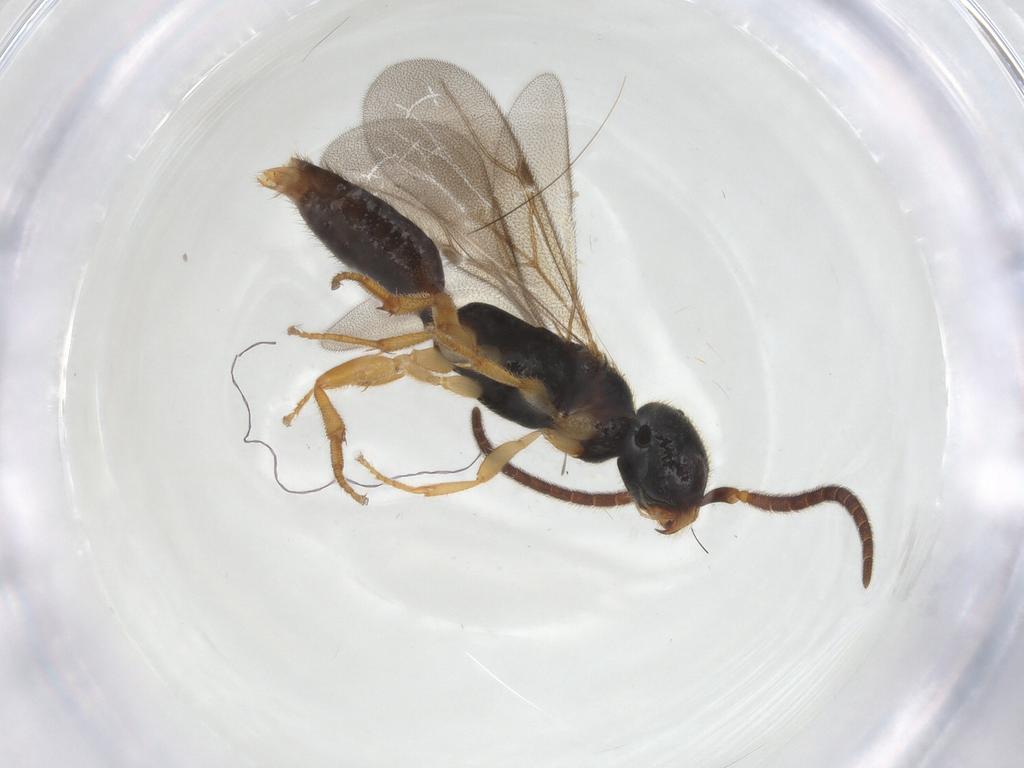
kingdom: Animalia
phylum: Arthropoda
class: Insecta
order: Hymenoptera
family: Bethylidae
